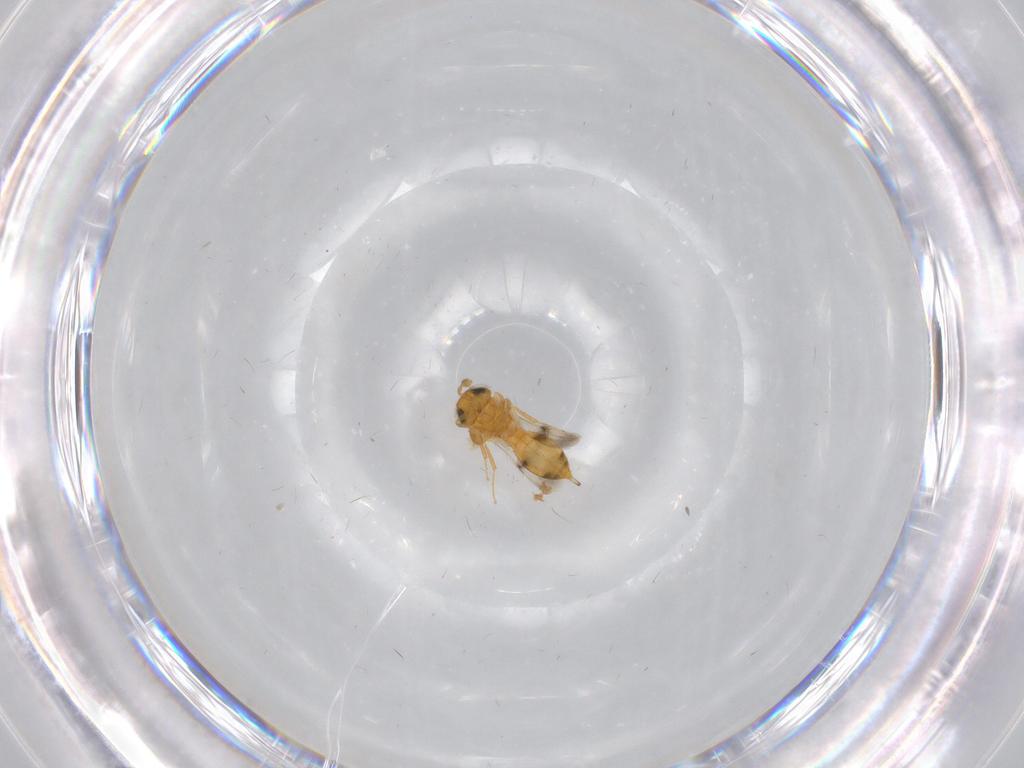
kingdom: Animalia
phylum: Arthropoda
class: Insecta
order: Hymenoptera
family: Scelionidae
